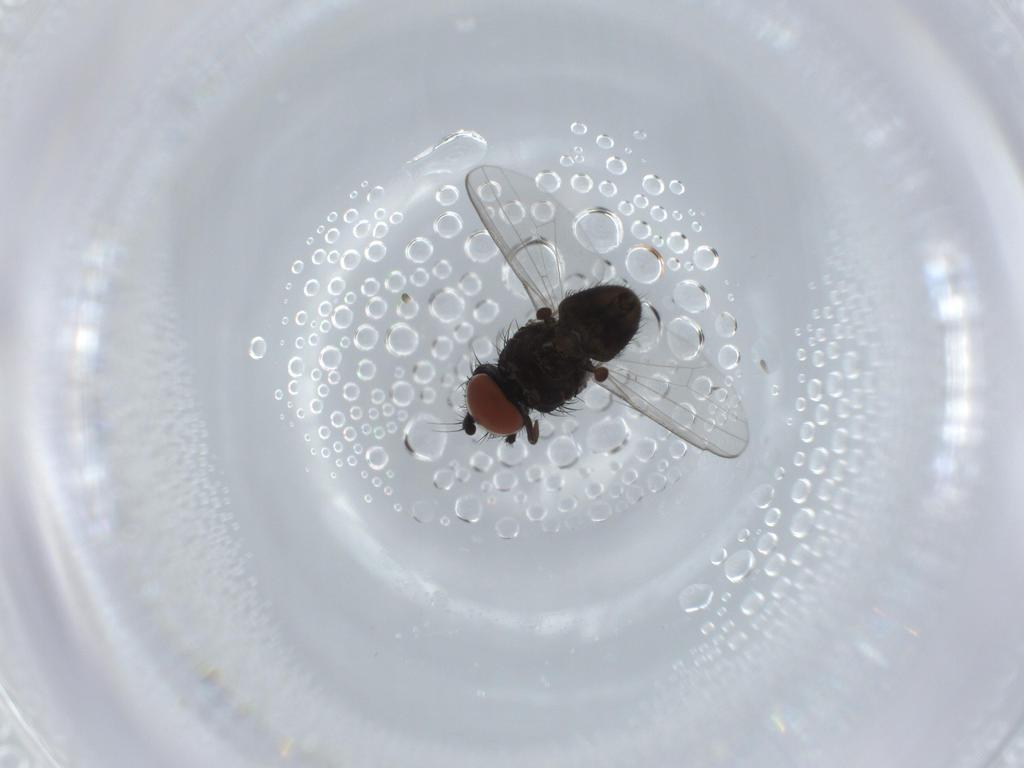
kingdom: Animalia
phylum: Arthropoda
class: Insecta
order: Diptera
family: Milichiidae
